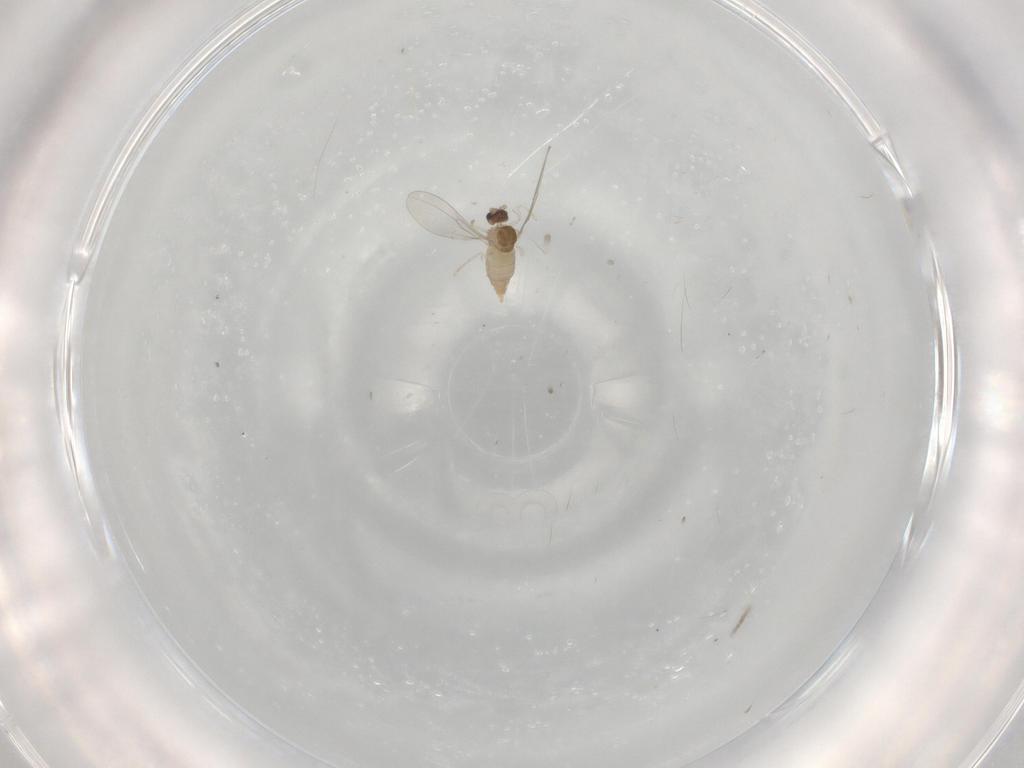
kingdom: Animalia
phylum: Arthropoda
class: Insecta
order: Diptera
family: Cecidomyiidae
